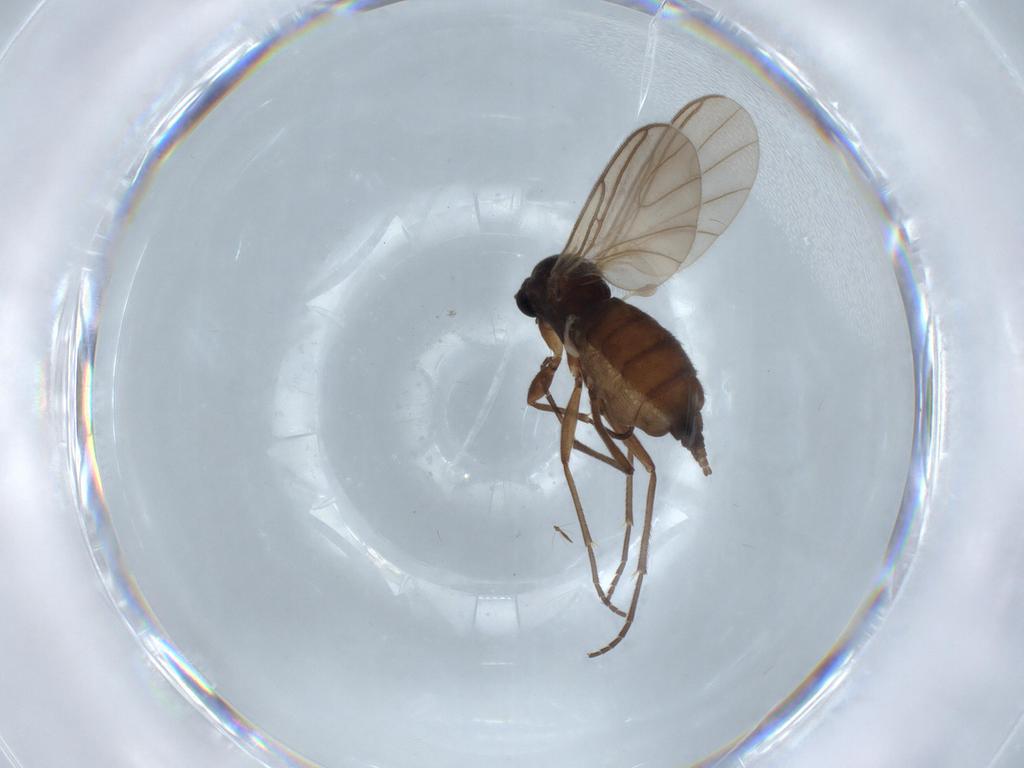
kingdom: Animalia
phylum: Arthropoda
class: Insecta
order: Diptera
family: Sciaridae
